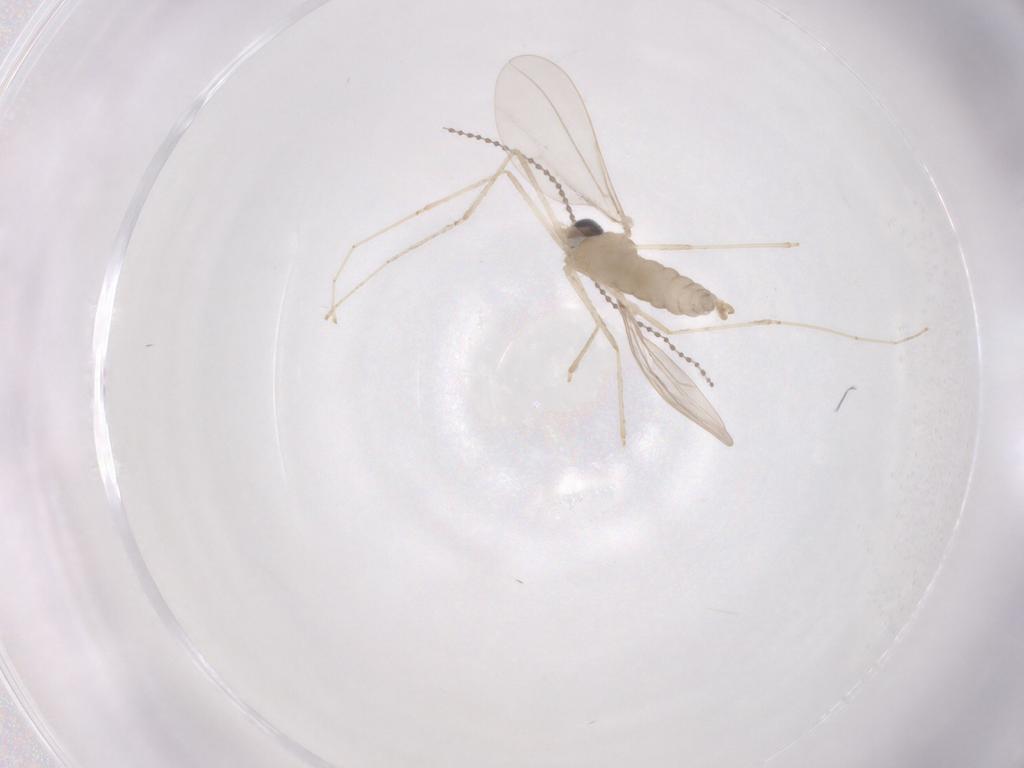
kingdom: Animalia
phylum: Arthropoda
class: Insecta
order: Diptera
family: Cecidomyiidae
